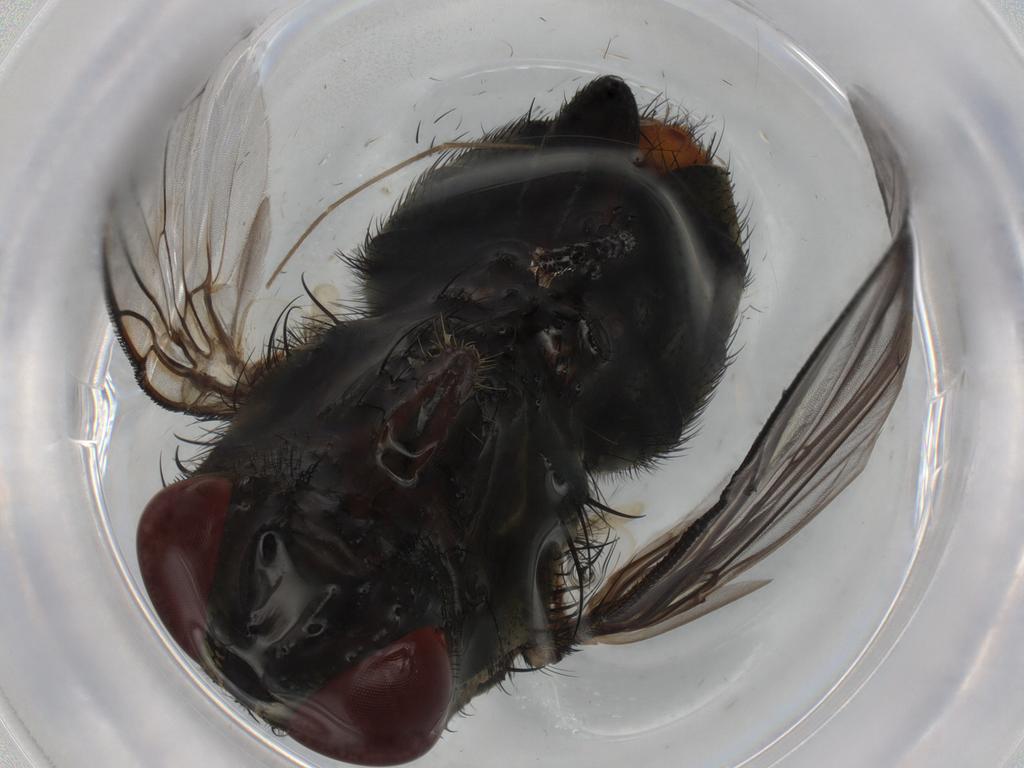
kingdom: Animalia
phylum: Arthropoda
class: Insecta
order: Diptera
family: Cecidomyiidae
